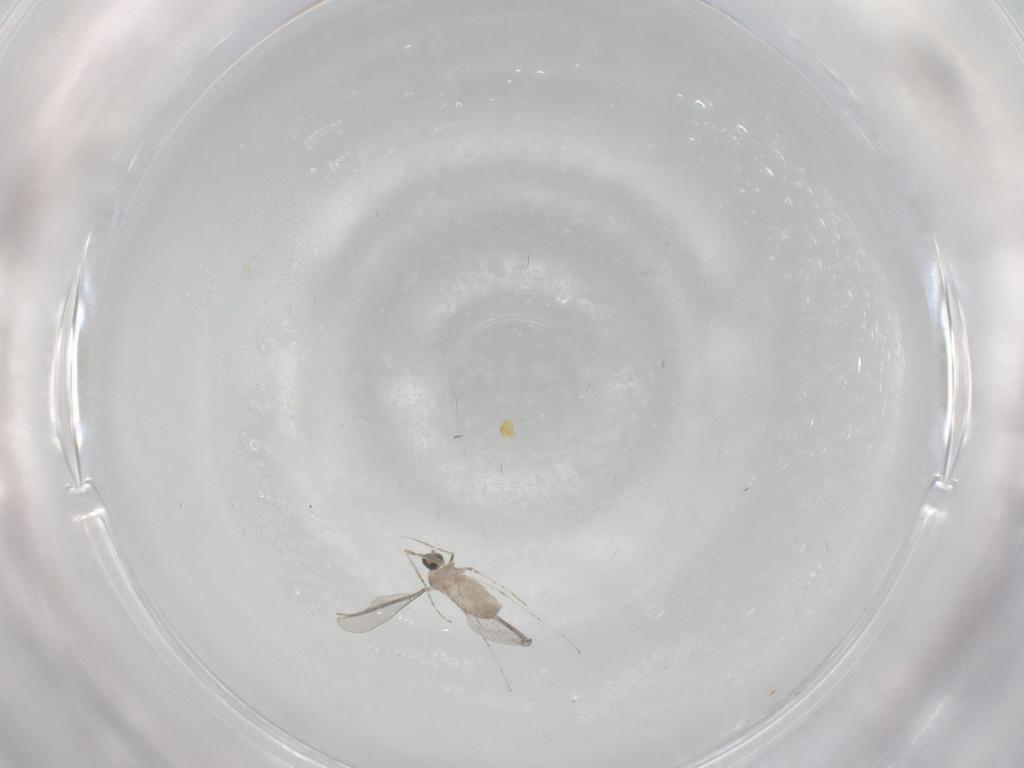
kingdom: Animalia
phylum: Arthropoda
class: Insecta
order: Diptera
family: Cecidomyiidae
